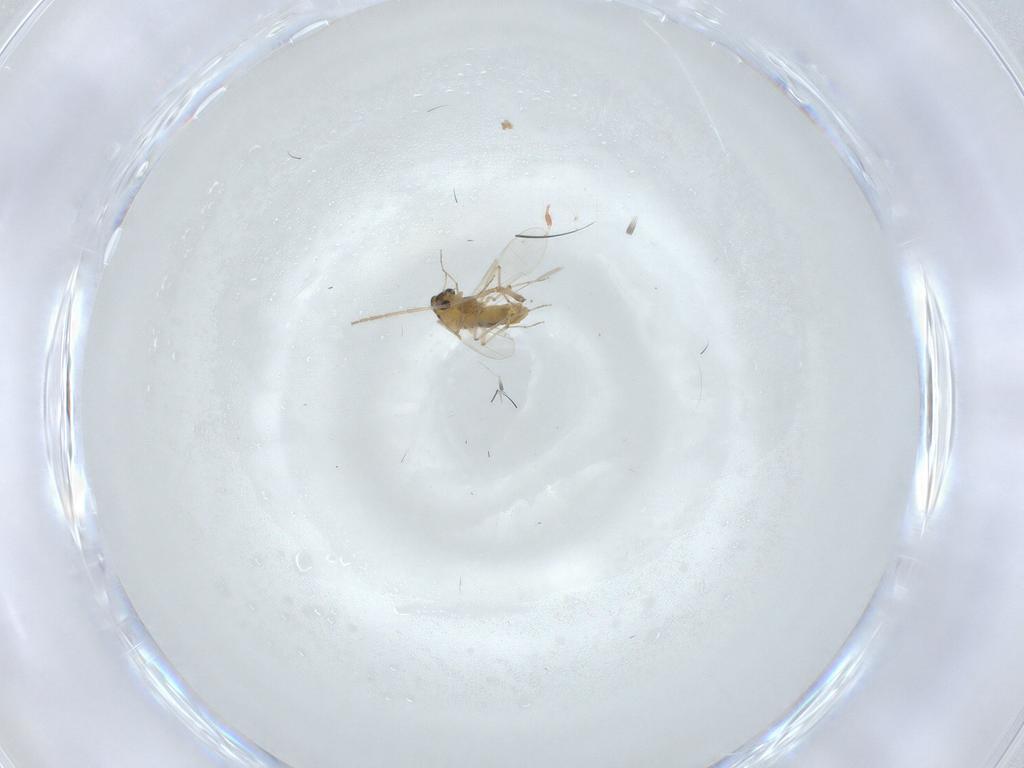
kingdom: Animalia
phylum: Arthropoda
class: Insecta
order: Diptera
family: Chironomidae
